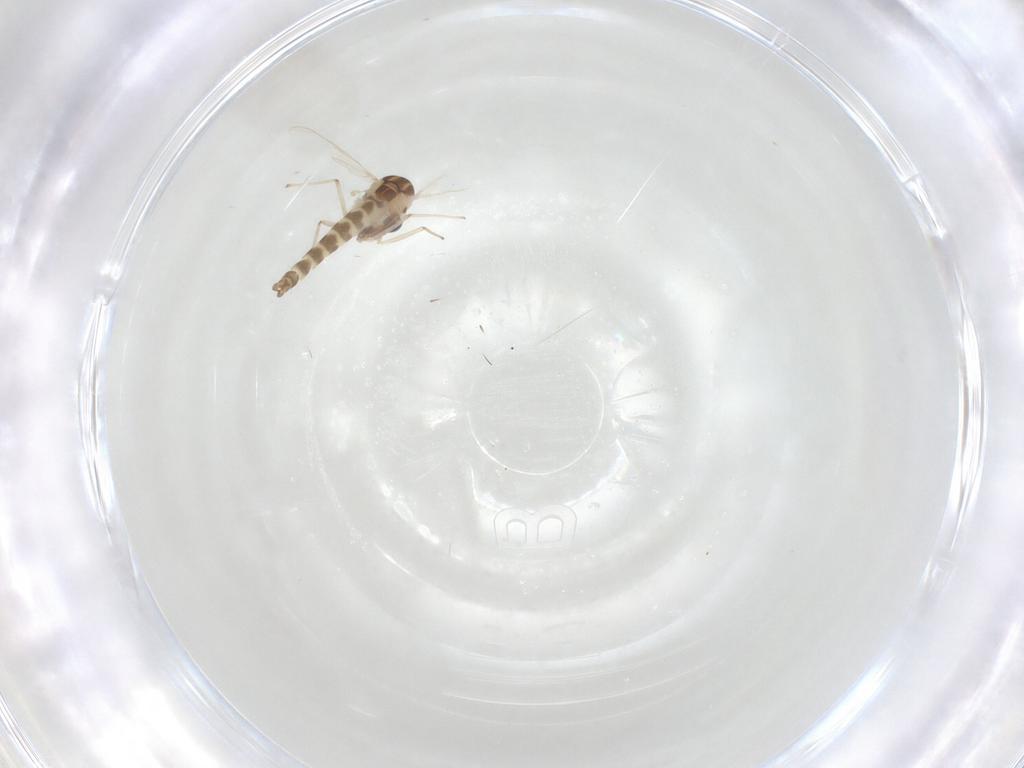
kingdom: Animalia
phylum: Arthropoda
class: Insecta
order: Diptera
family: Chironomidae
